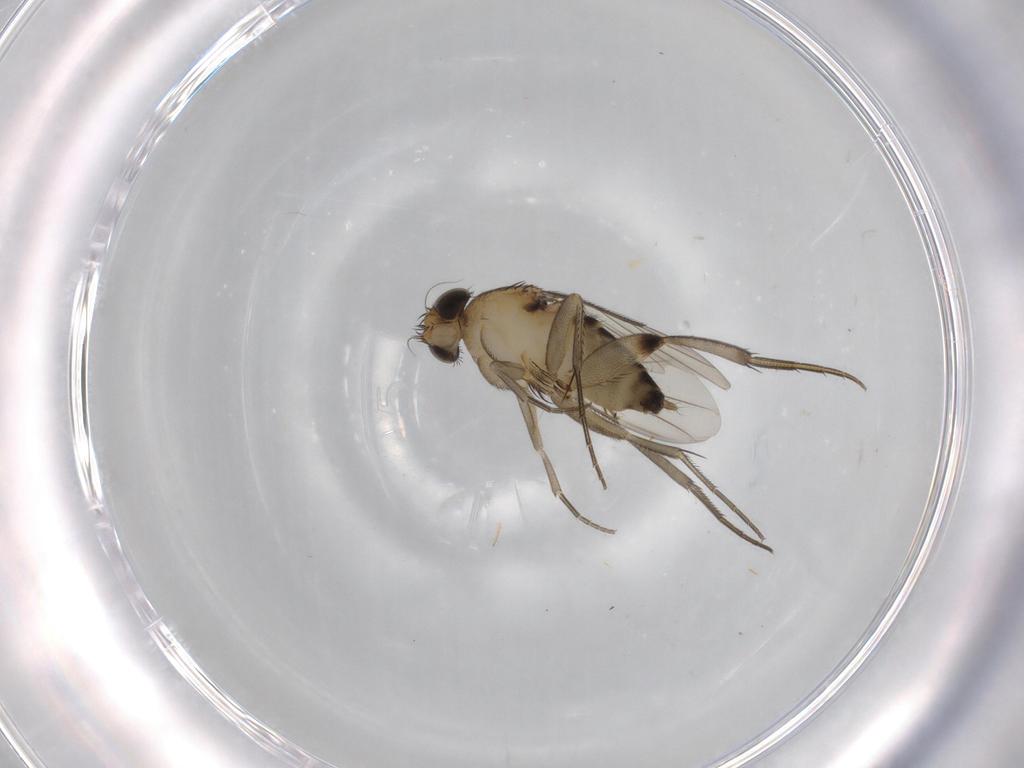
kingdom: Animalia
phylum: Arthropoda
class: Insecta
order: Diptera
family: Phoridae
